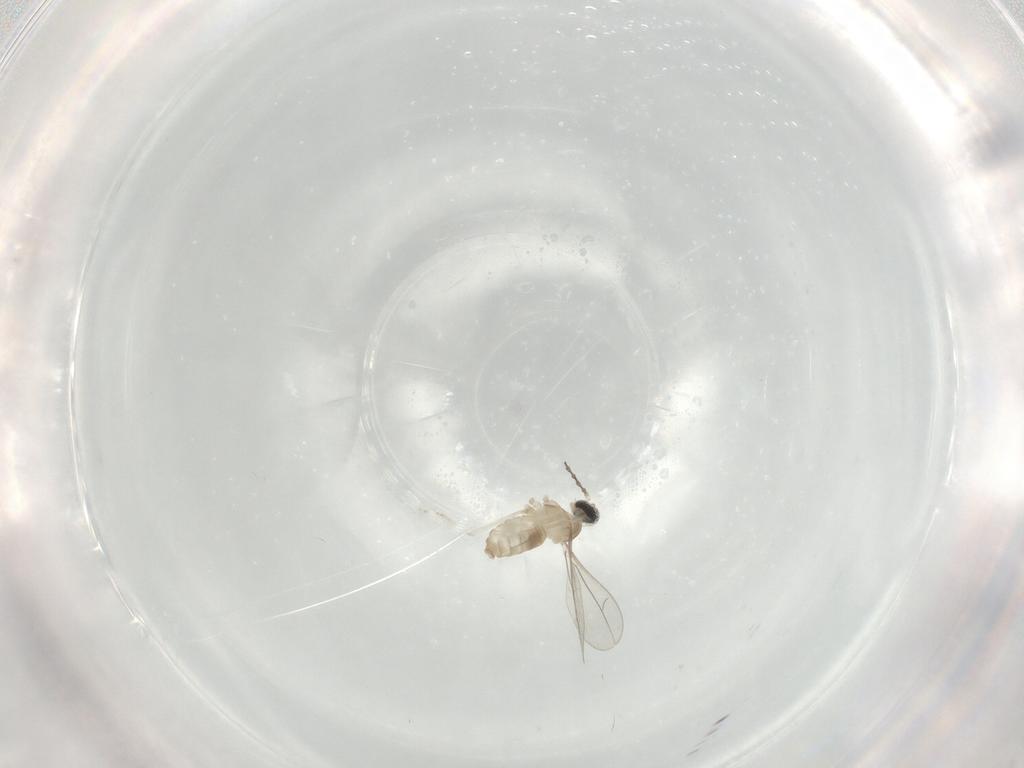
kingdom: Animalia
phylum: Arthropoda
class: Insecta
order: Diptera
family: Cecidomyiidae
